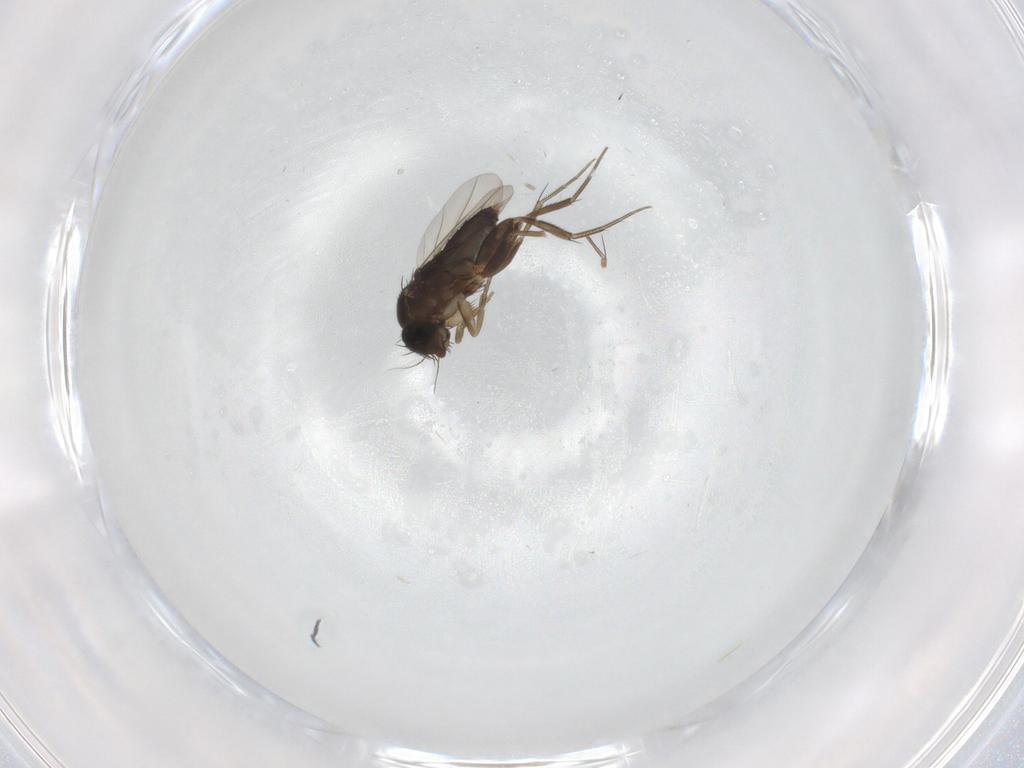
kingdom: Animalia
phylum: Arthropoda
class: Insecta
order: Diptera
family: Phoridae
